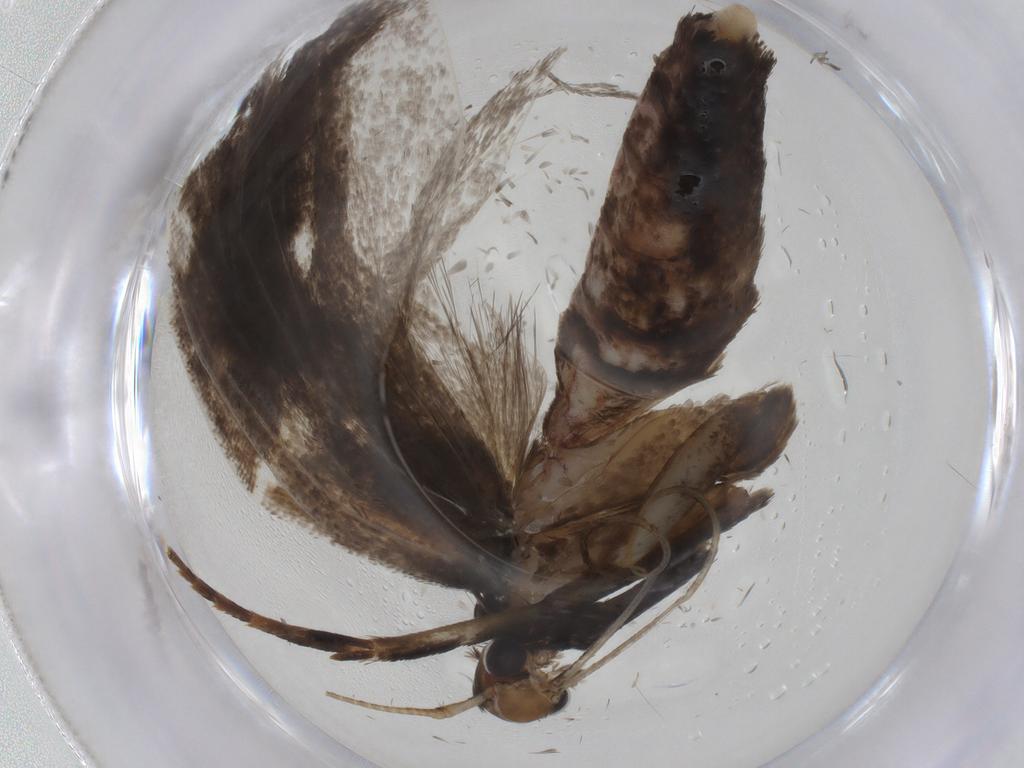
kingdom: Animalia
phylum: Arthropoda
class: Insecta
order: Lepidoptera
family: Gelechiidae
